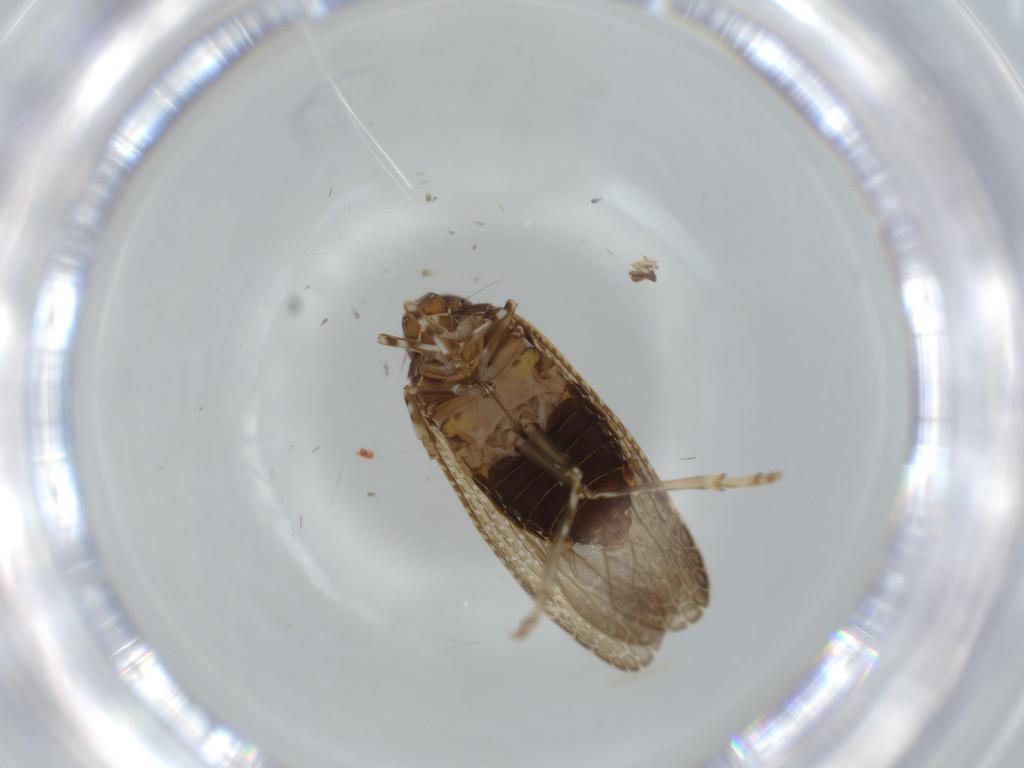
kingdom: Animalia
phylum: Arthropoda
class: Insecta
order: Hemiptera
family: Achilidae
